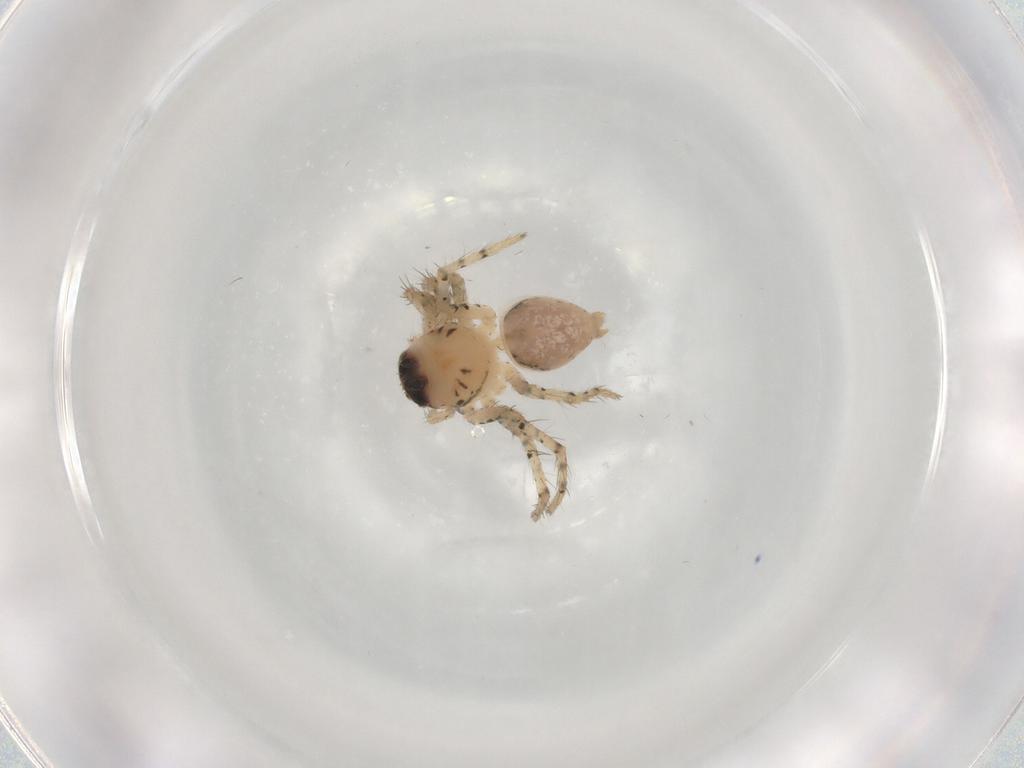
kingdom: Animalia
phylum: Arthropoda
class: Arachnida
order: Araneae
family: Oxyopidae
